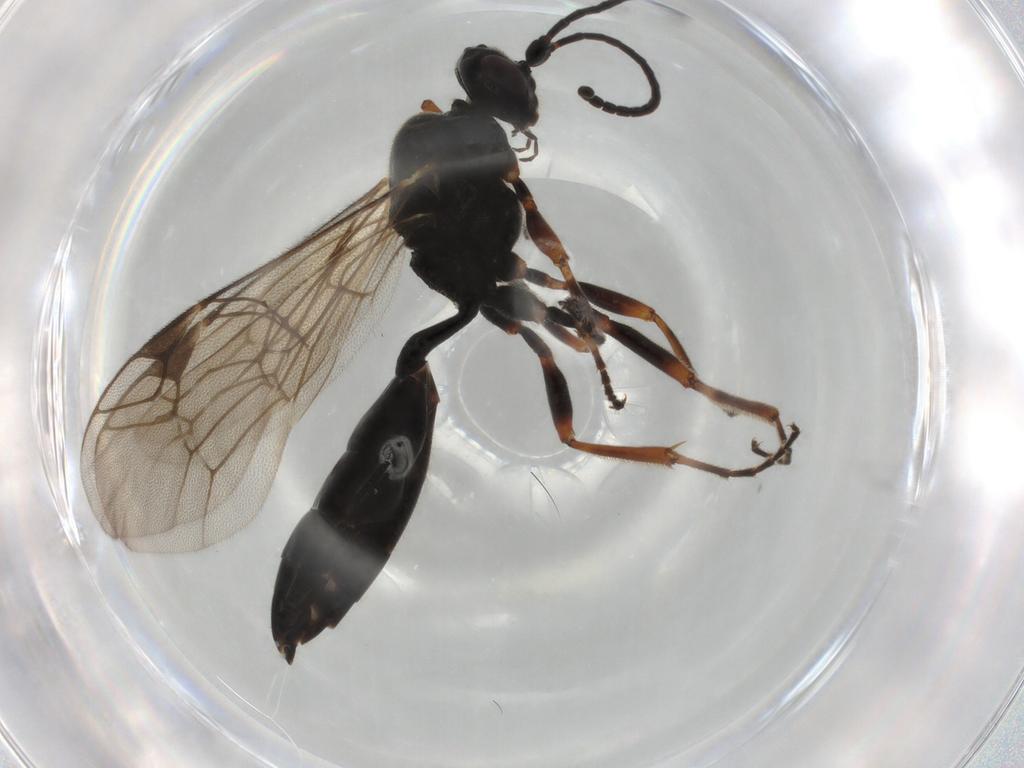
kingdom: Animalia
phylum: Arthropoda
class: Insecta
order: Hymenoptera
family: Ichneumonidae
